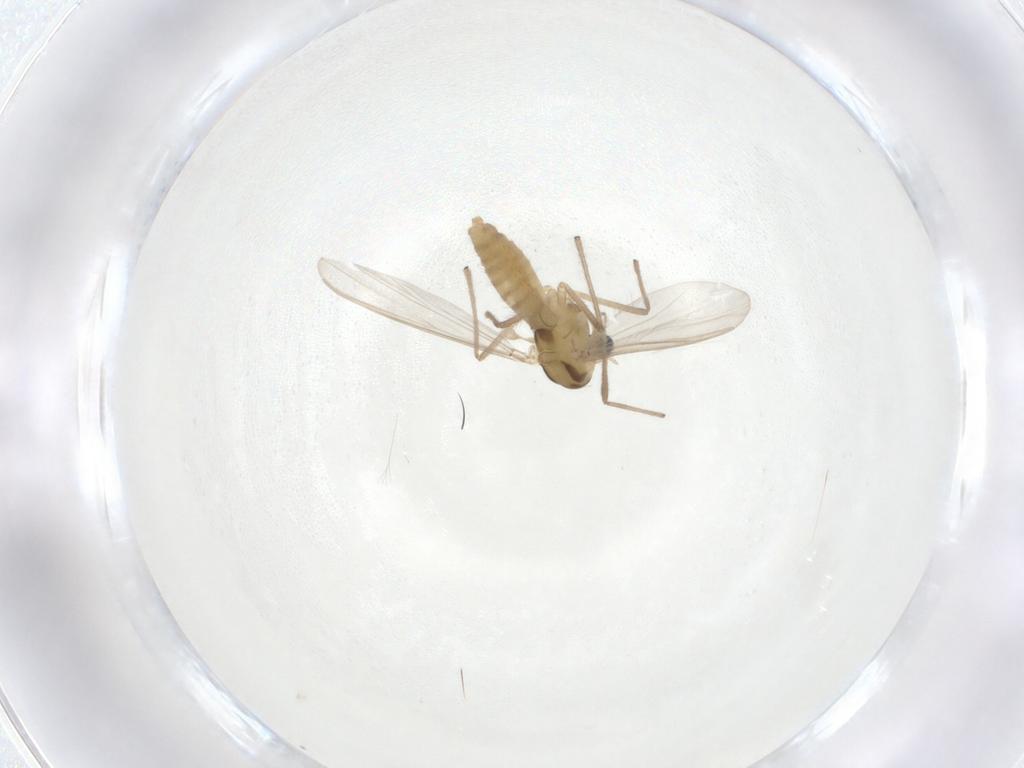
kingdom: Animalia
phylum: Arthropoda
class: Insecta
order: Diptera
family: Chironomidae
